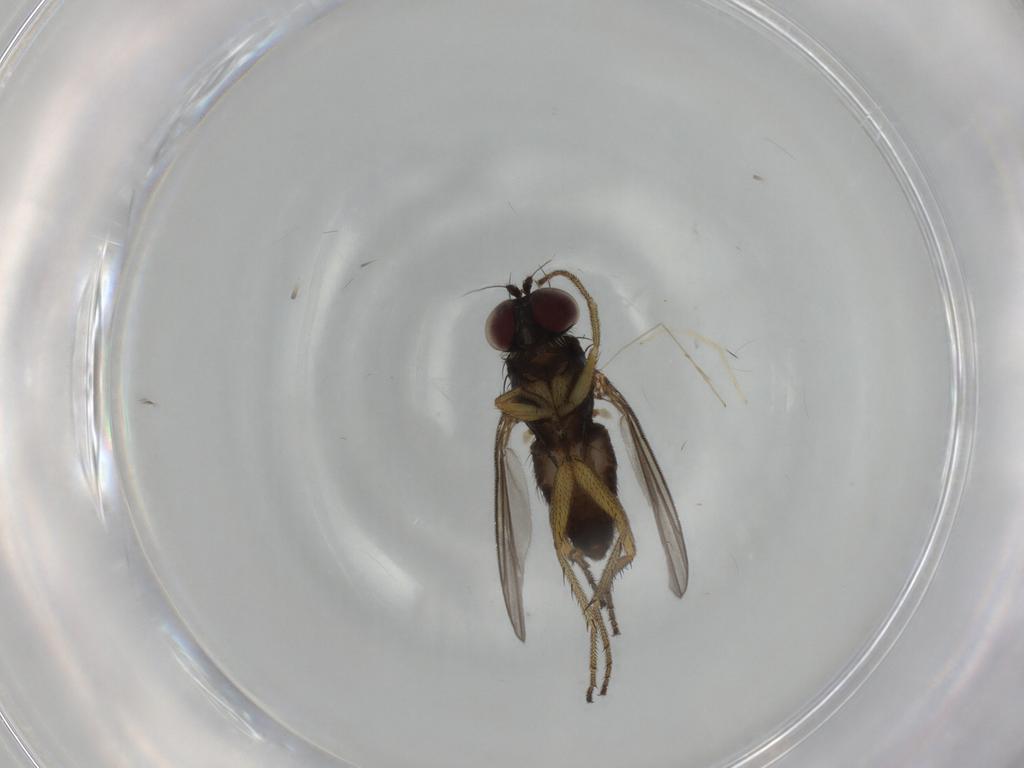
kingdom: Animalia
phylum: Arthropoda
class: Insecta
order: Diptera
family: Dolichopodidae
